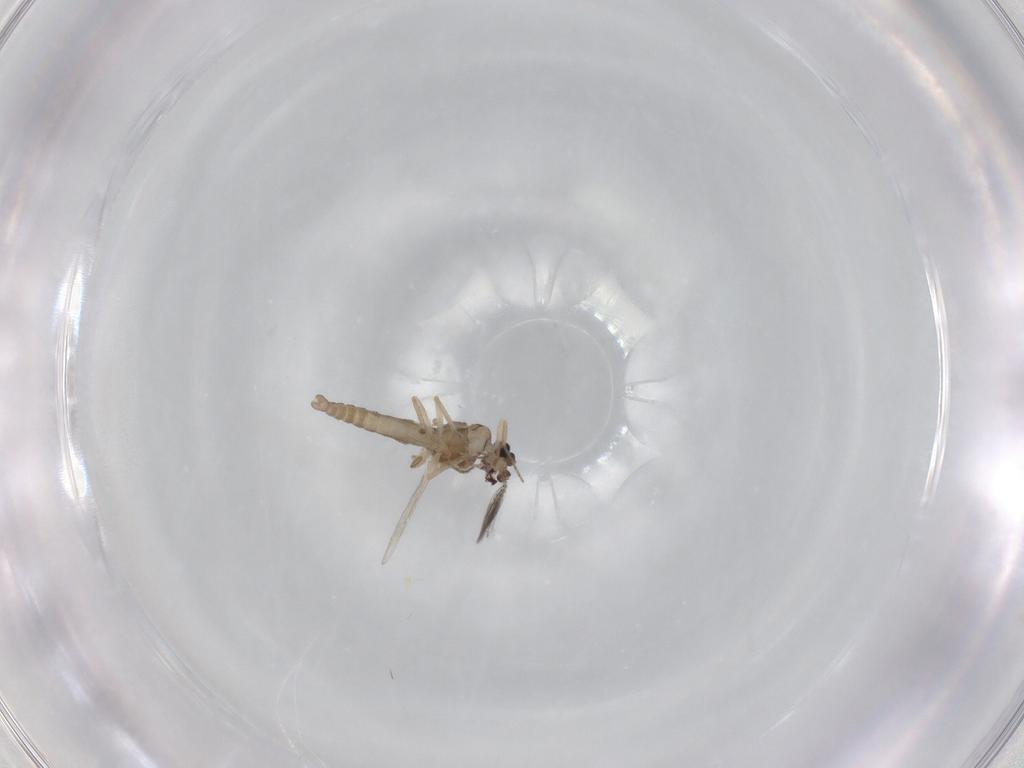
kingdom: Animalia
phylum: Arthropoda
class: Insecta
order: Diptera
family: Ceratopogonidae
